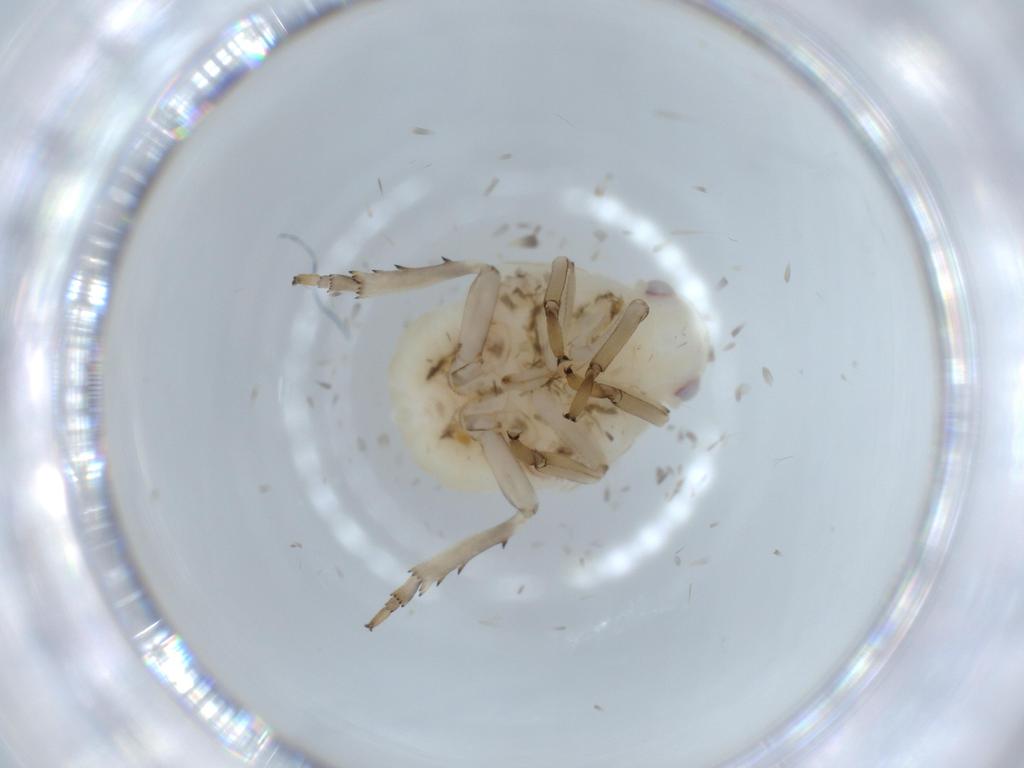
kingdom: Animalia
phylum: Arthropoda
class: Insecta
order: Hemiptera
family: Flatidae
